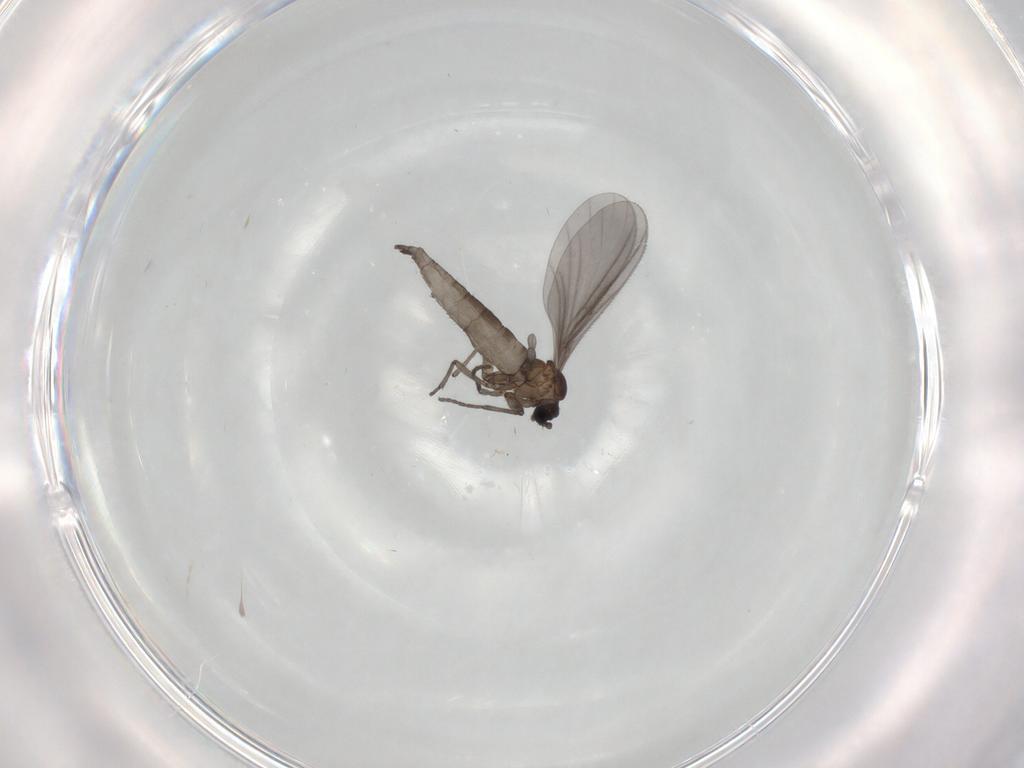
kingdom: Animalia
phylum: Arthropoda
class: Insecta
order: Diptera
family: Sciaridae
